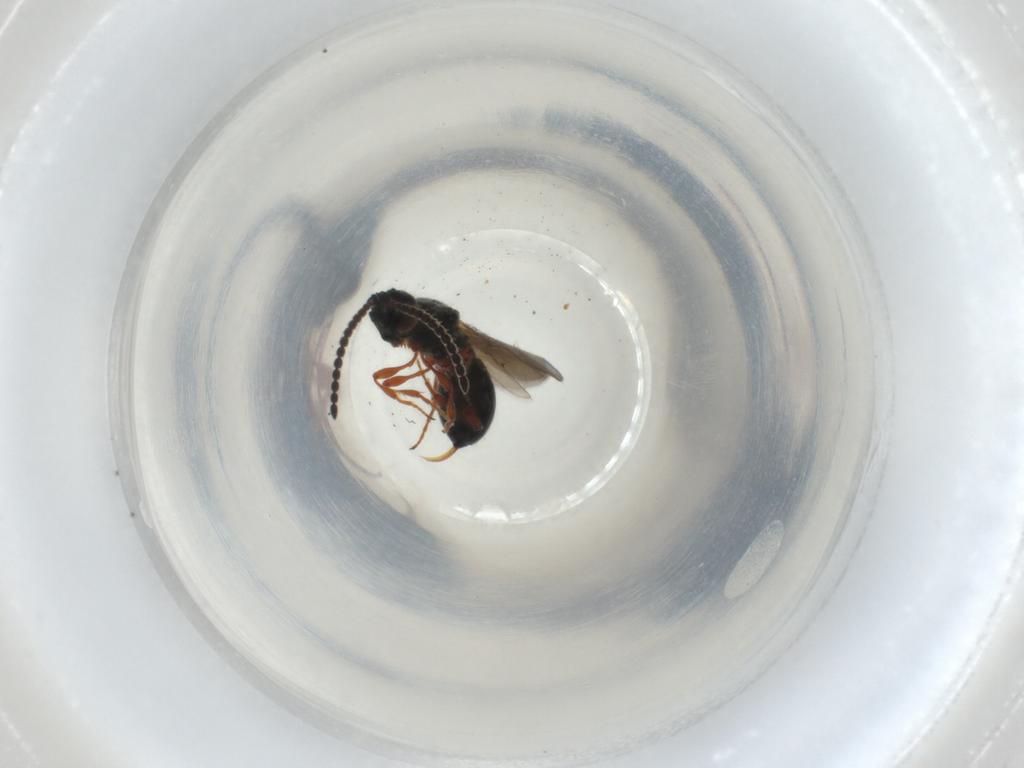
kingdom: Animalia
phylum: Arthropoda
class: Insecta
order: Hymenoptera
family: Diapriidae
